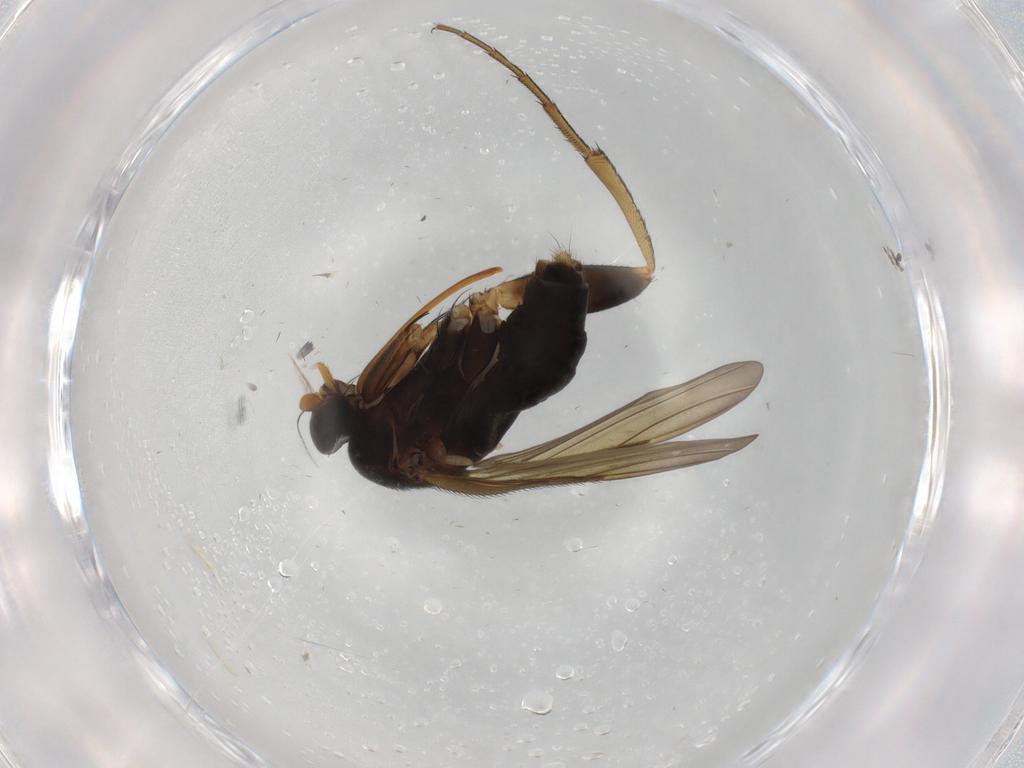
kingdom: Animalia
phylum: Arthropoda
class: Insecta
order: Diptera
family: Phoridae
